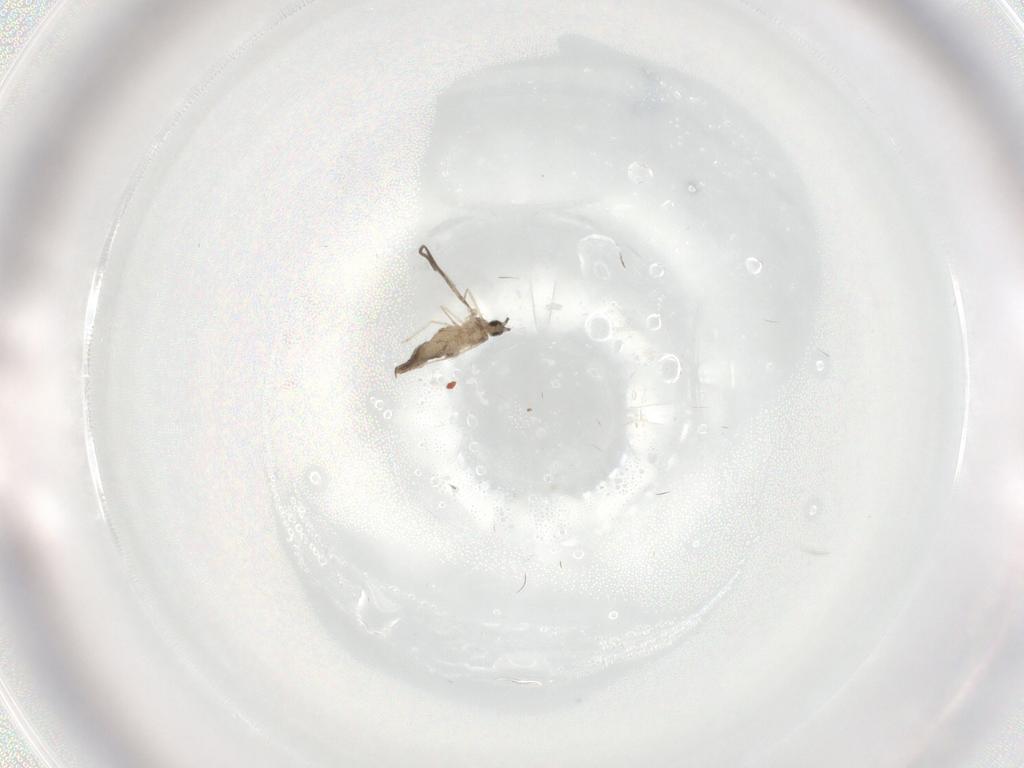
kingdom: Animalia
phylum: Arthropoda
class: Insecta
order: Diptera
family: Cecidomyiidae
